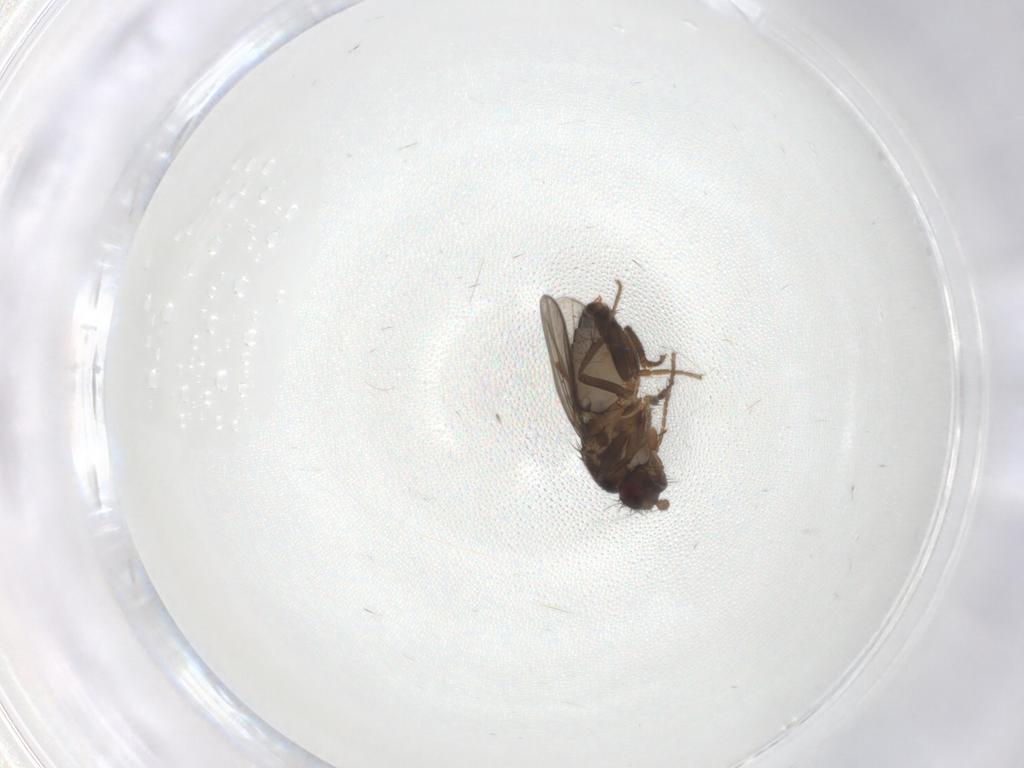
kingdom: Animalia
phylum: Arthropoda
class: Insecta
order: Diptera
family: Sphaeroceridae
